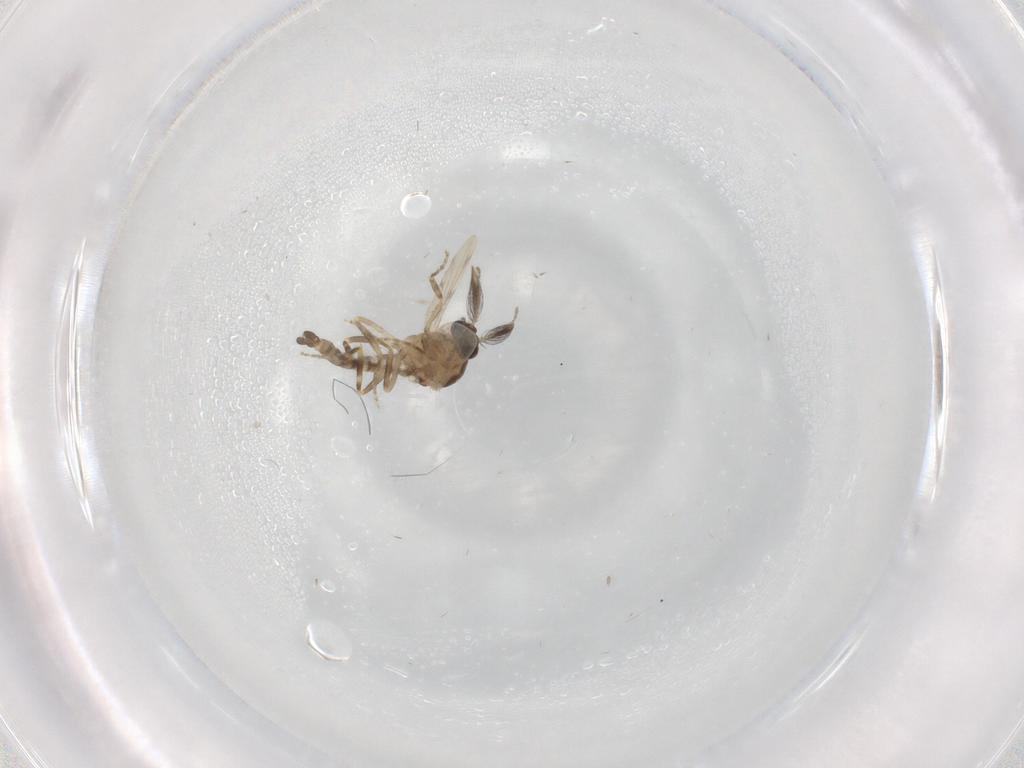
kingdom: Animalia
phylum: Arthropoda
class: Insecta
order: Diptera
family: Ceratopogonidae
